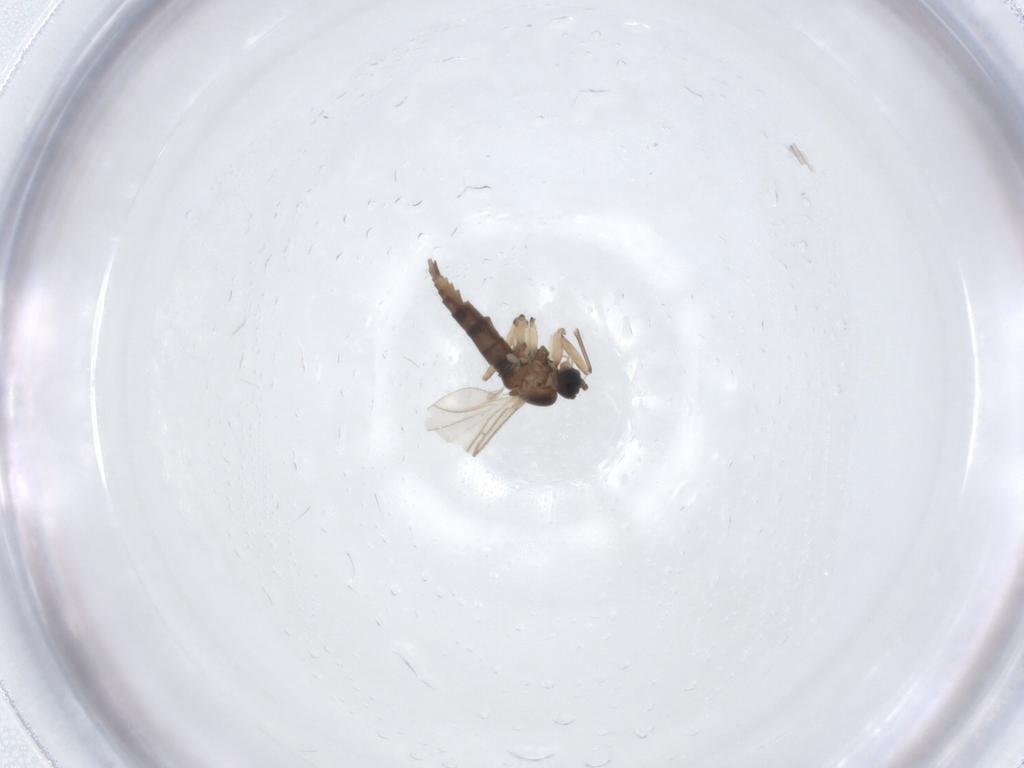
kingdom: Animalia
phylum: Arthropoda
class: Insecta
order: Diptera
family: Sciaridae
